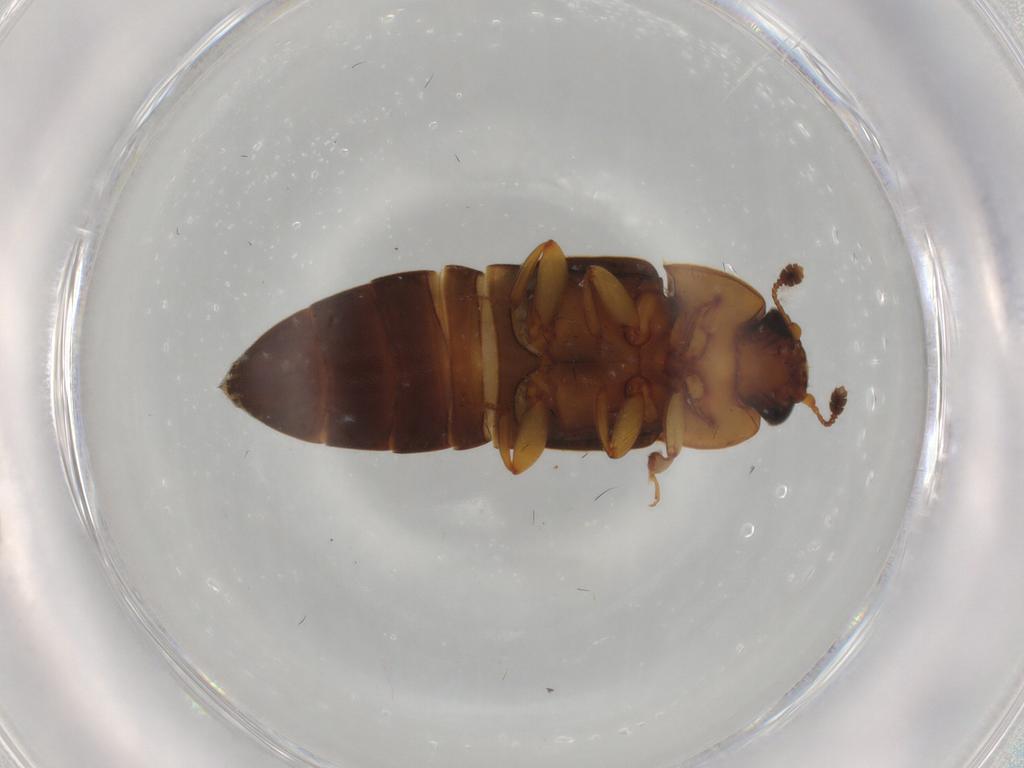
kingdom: Animalia
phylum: Arthropoda
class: Insecta
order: Coleoptera
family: Nitidulidae
